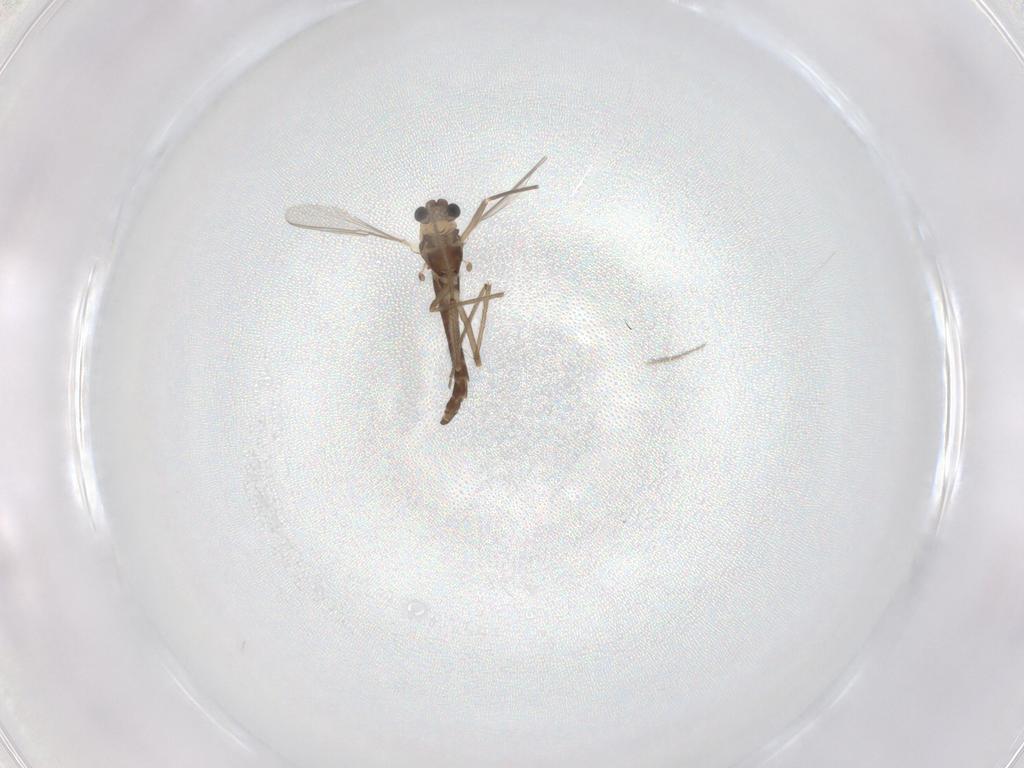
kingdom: Animalia
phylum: Arthropoda
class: Insecta
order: Diptera
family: Chironomidae
